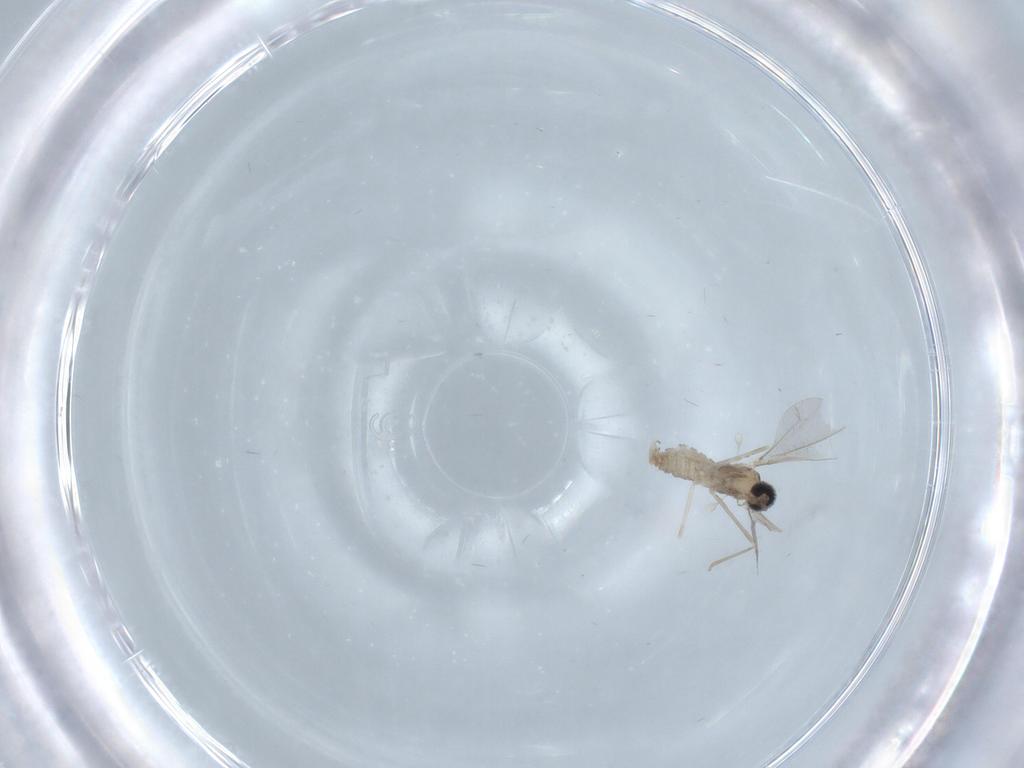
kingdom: Animalia
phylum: Arthropoda
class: Insecta
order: Diptera
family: Cecidomyiidae
